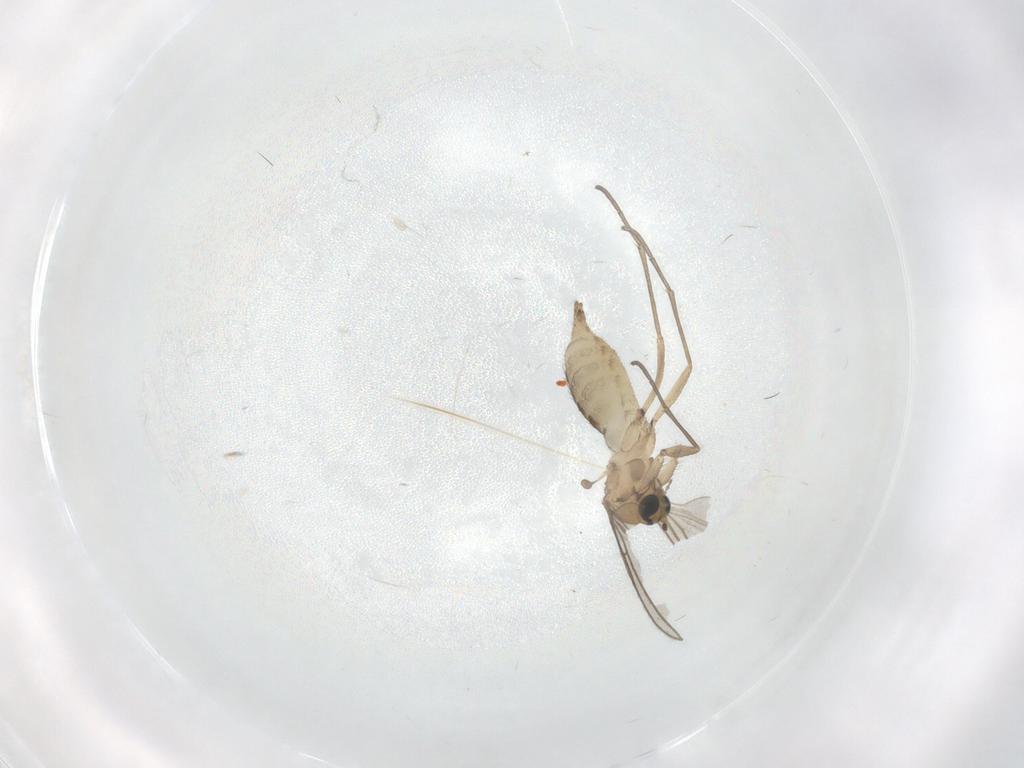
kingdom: Animalia
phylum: Arthropoda
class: Insecta
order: Diptera
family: Sciaridae
